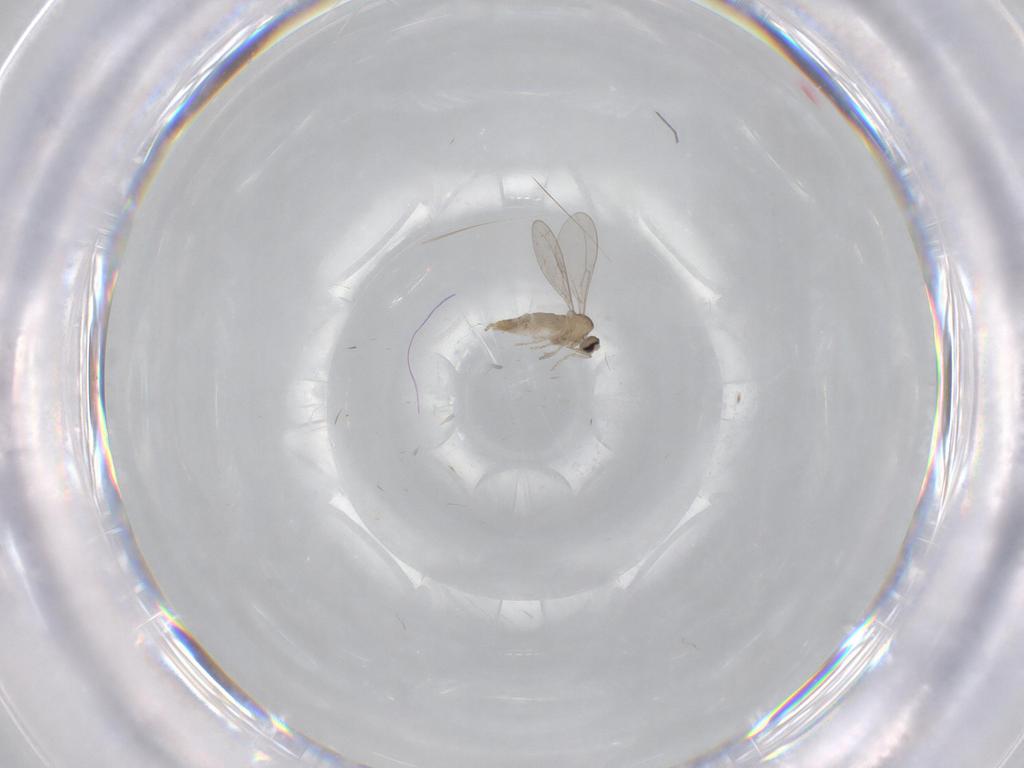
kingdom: Animalia
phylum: Arthropoda
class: Insecta
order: Diptera
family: Cecidomyiidae
